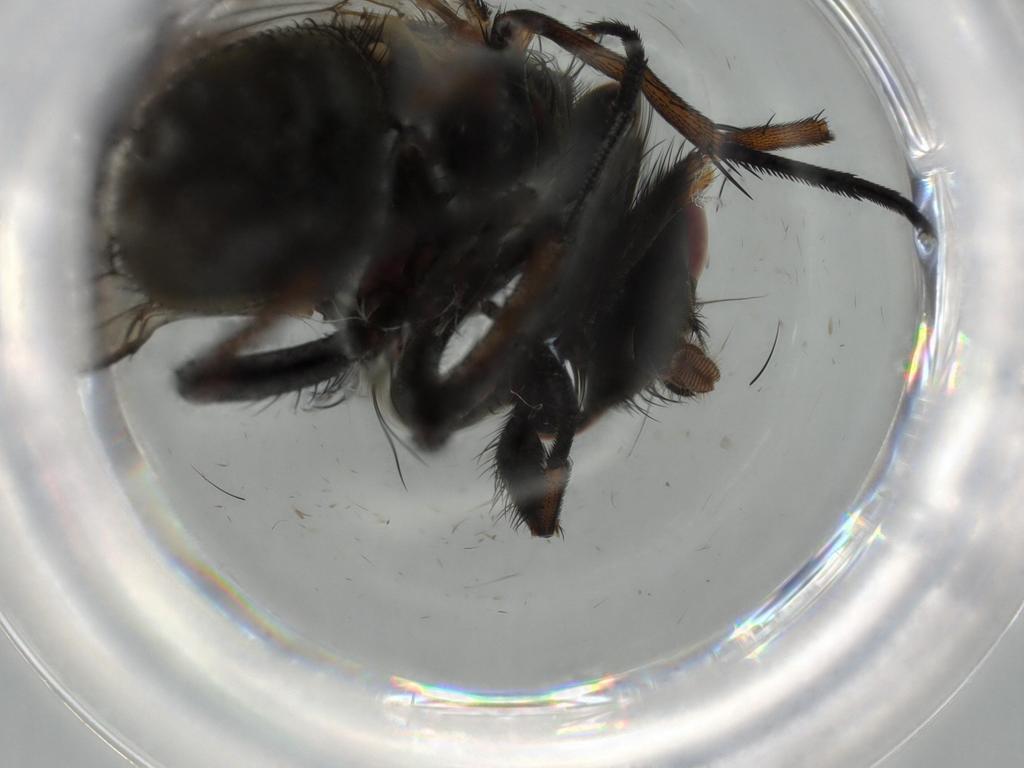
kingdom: Animalia
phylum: Arthropoda
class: Insecta
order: Diptera
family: Muscidae
